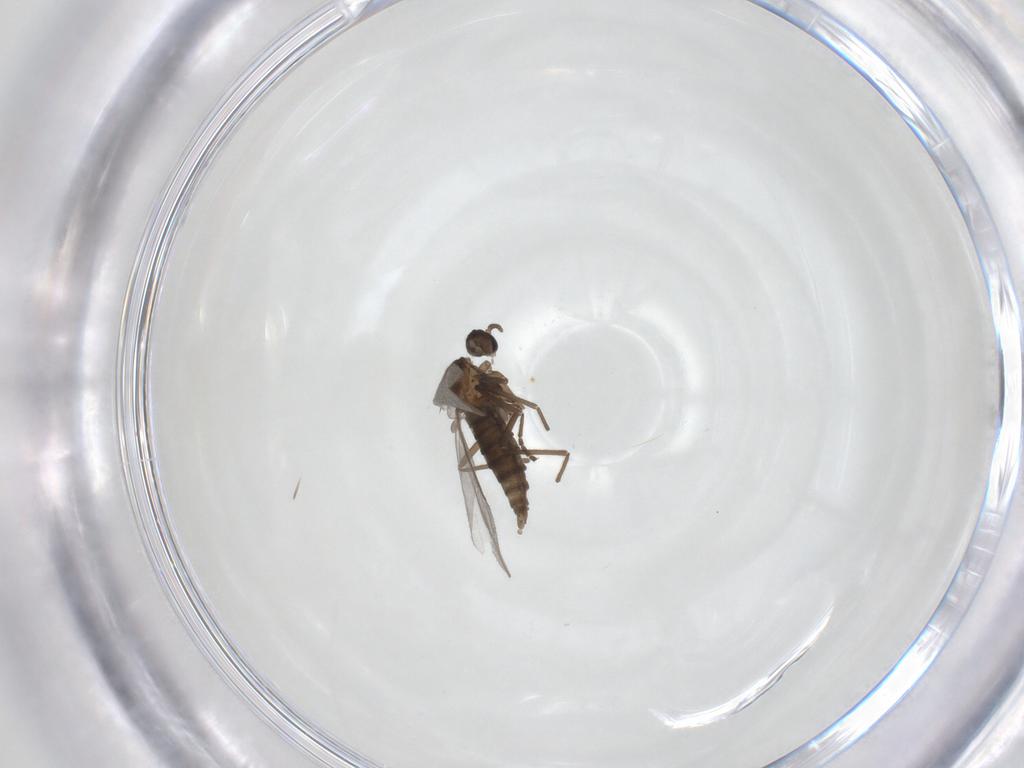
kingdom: Animalia
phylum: Arthropoda
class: Insecta
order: Diptera
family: Cecidomyiidae
